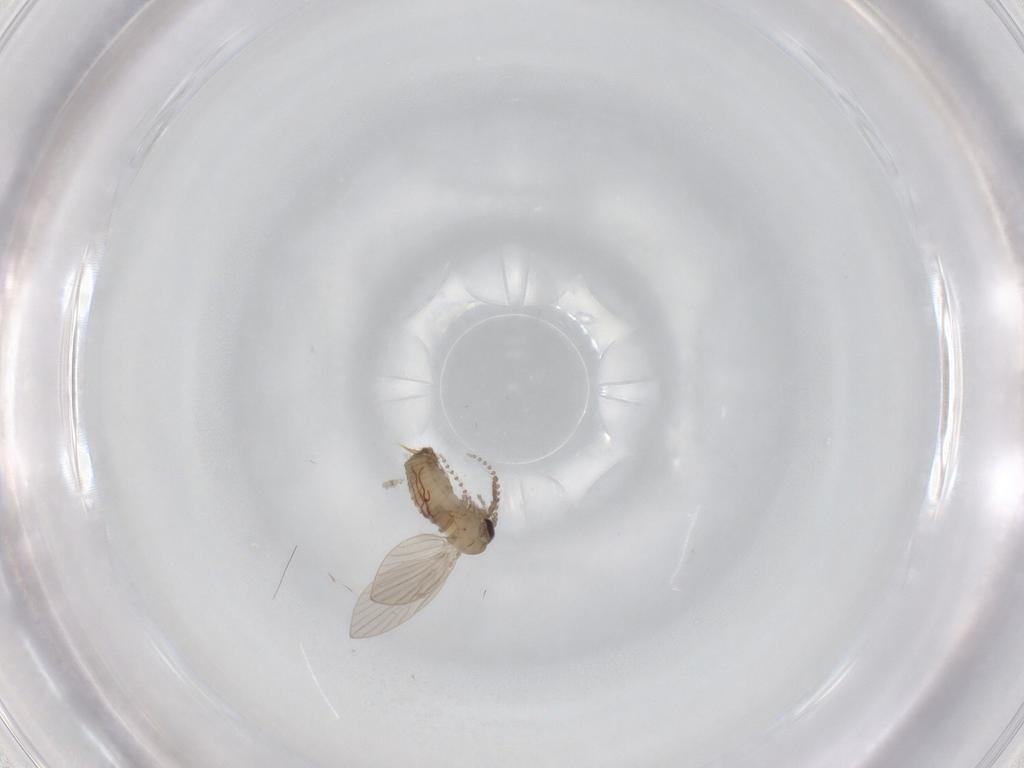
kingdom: Animalia
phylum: Arthropoda
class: Insecta
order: Diptera
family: Psychodidae
